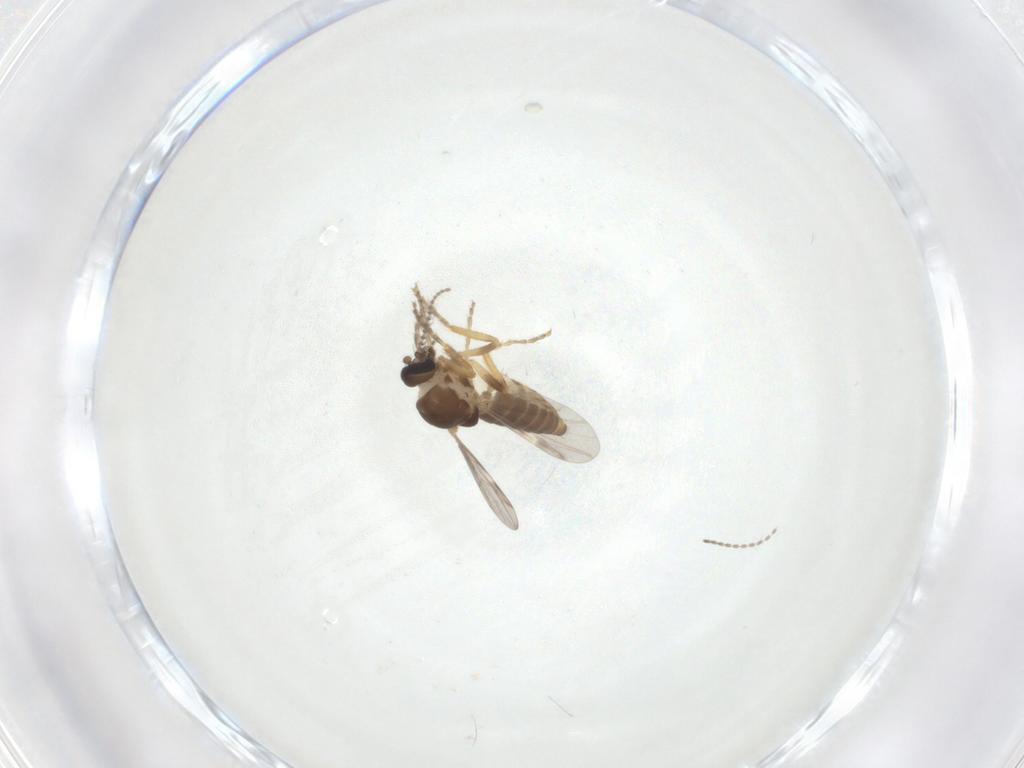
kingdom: Animalia
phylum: Arthropoda
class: Insecta
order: Diptera
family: Ceratopogonidae
